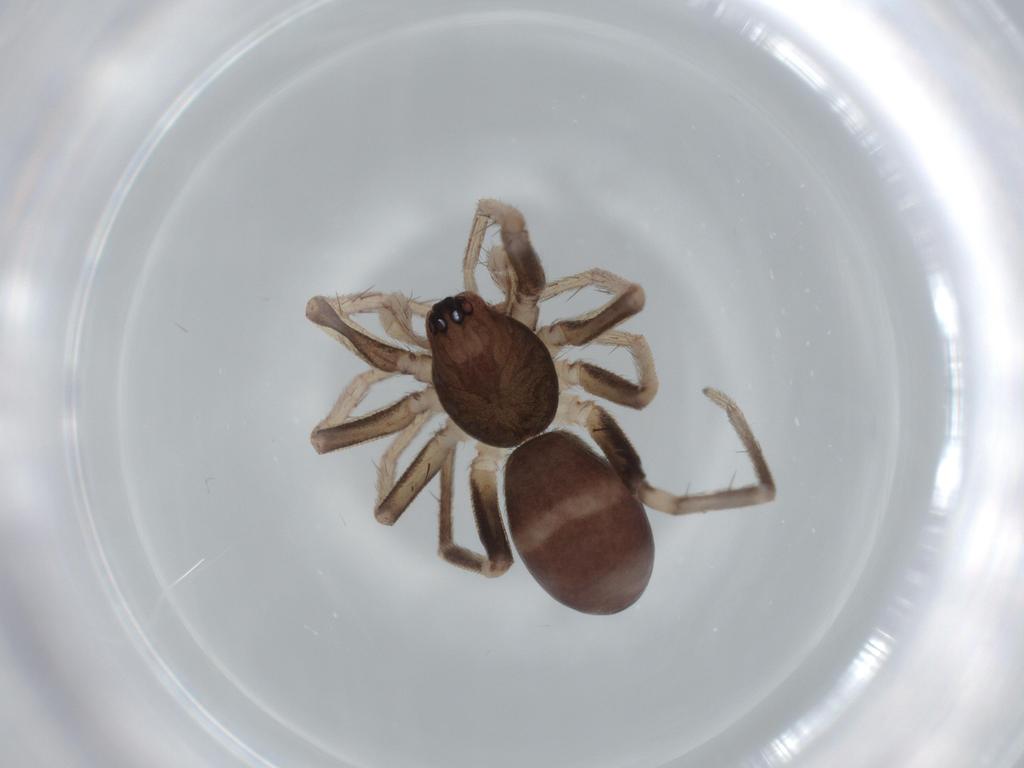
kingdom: Animalia
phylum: Arthropoda
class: Arachnida
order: Araneae
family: Corinnidae
